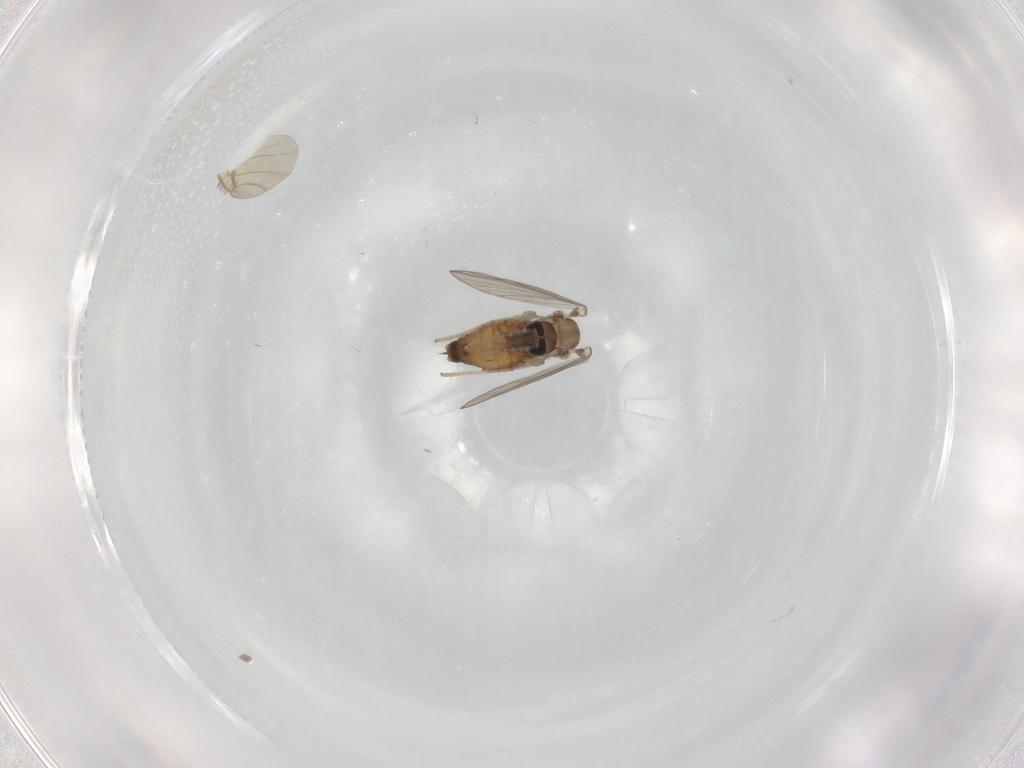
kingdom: Animalia
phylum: Arthropoda
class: Insecta
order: Diptera
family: Psychodidae
